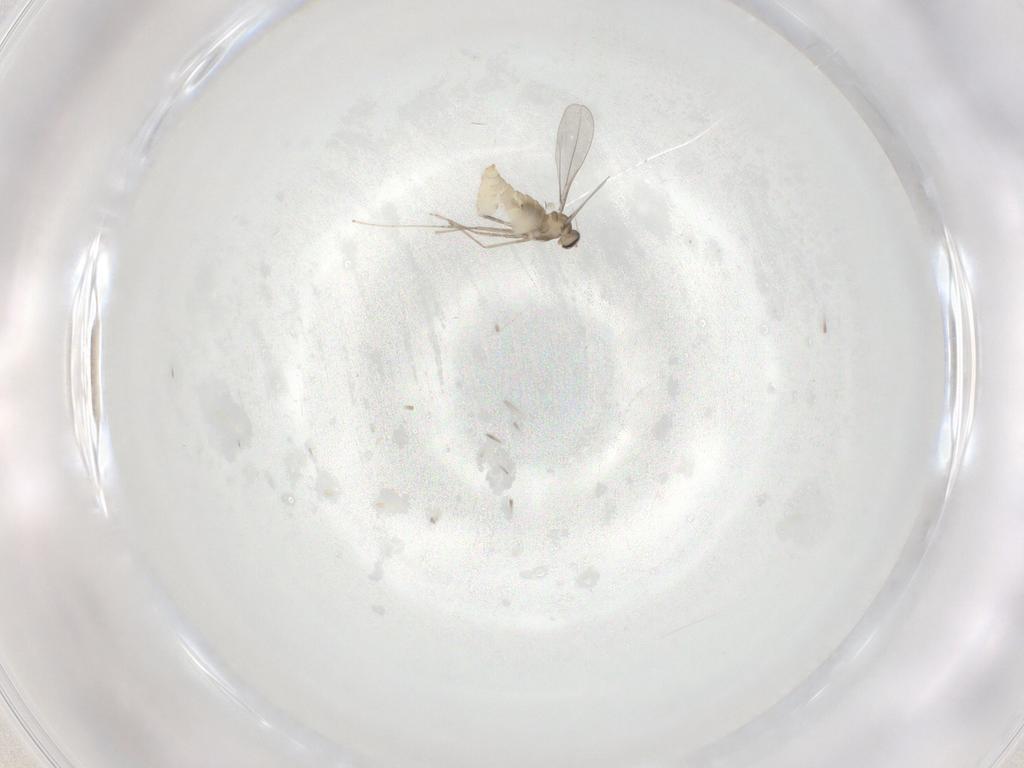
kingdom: Animalia
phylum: Arthropoda
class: Insecta
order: Diptera
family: Cecidomyiidae
